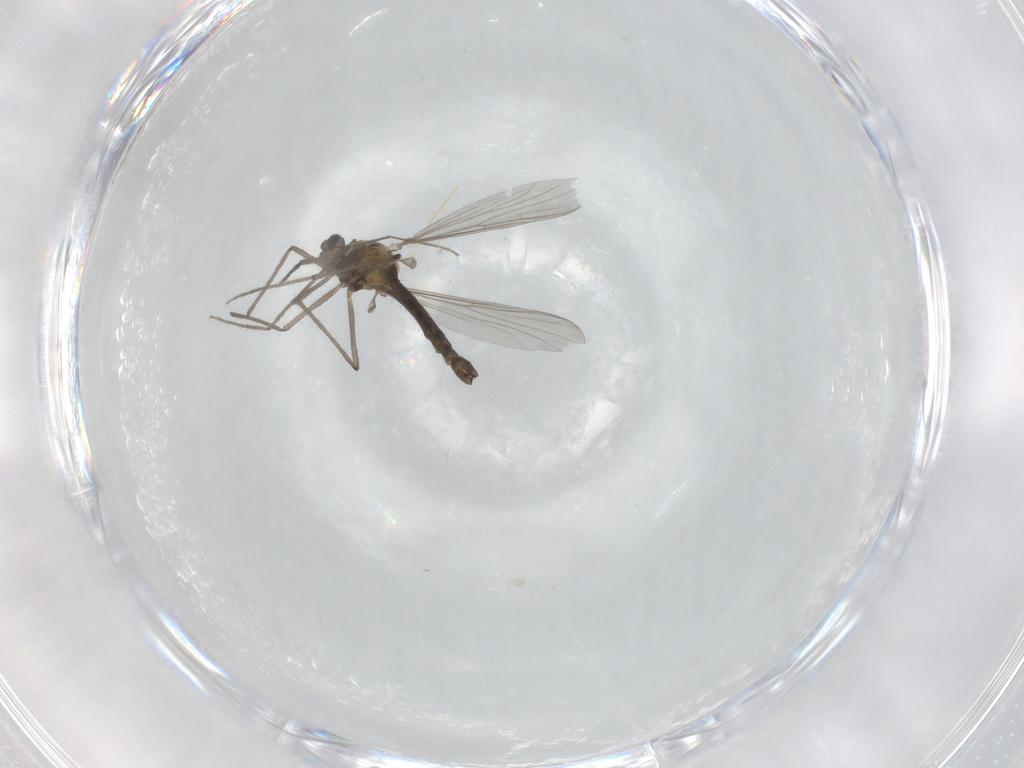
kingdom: Animalia
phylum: Arthropoda
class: Insecta
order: Diptera
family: Chironomidae
